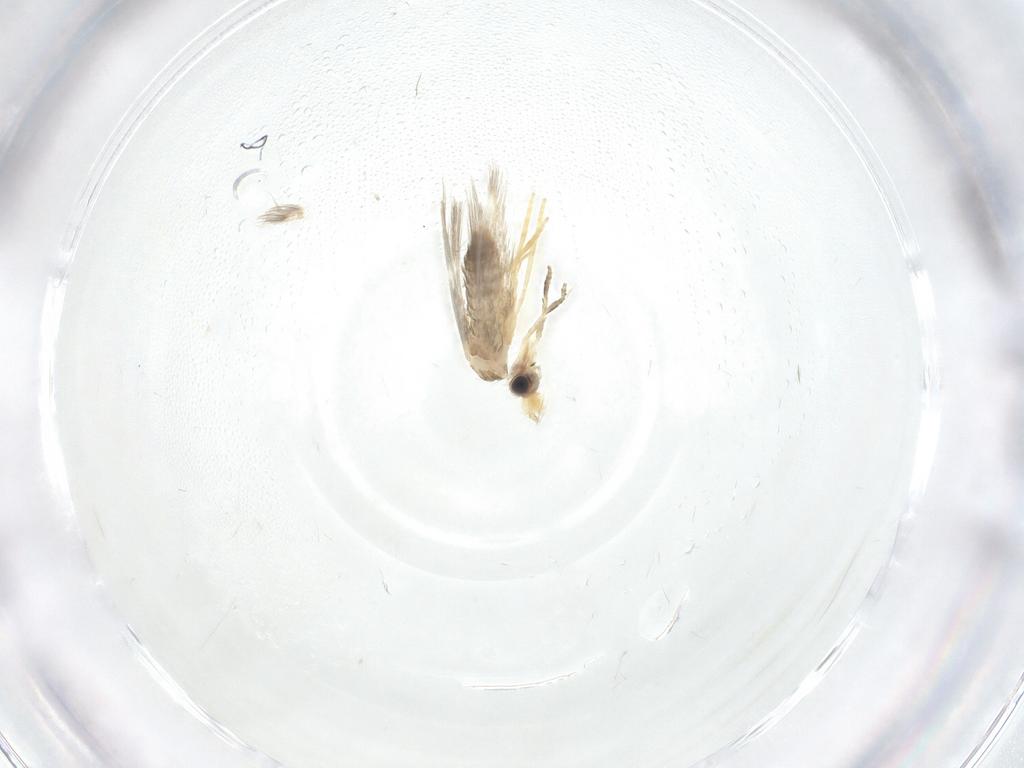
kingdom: Animalia
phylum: Arthropoda
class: Insecta
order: Lepidoptera
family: Nepticulidae
